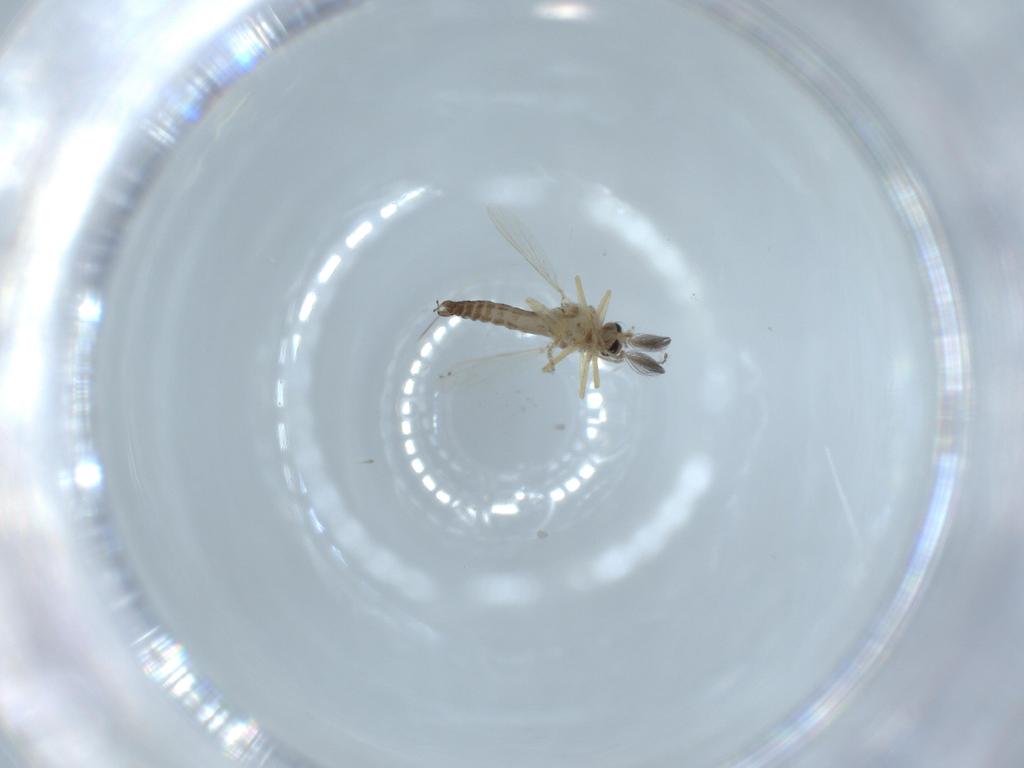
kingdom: Animalia
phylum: Arthropoda
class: Insecta
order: Diptera
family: Ceratopogonidae
